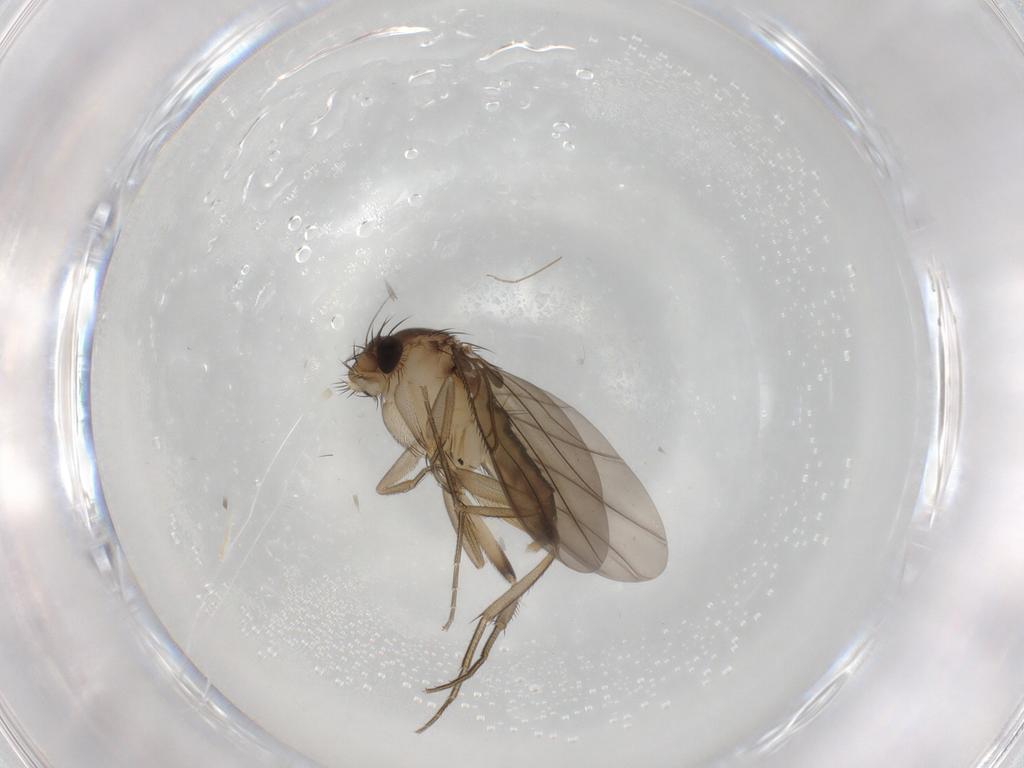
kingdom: Animalia
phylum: Arthropoda
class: Insecta
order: Diptera
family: Phoridae
